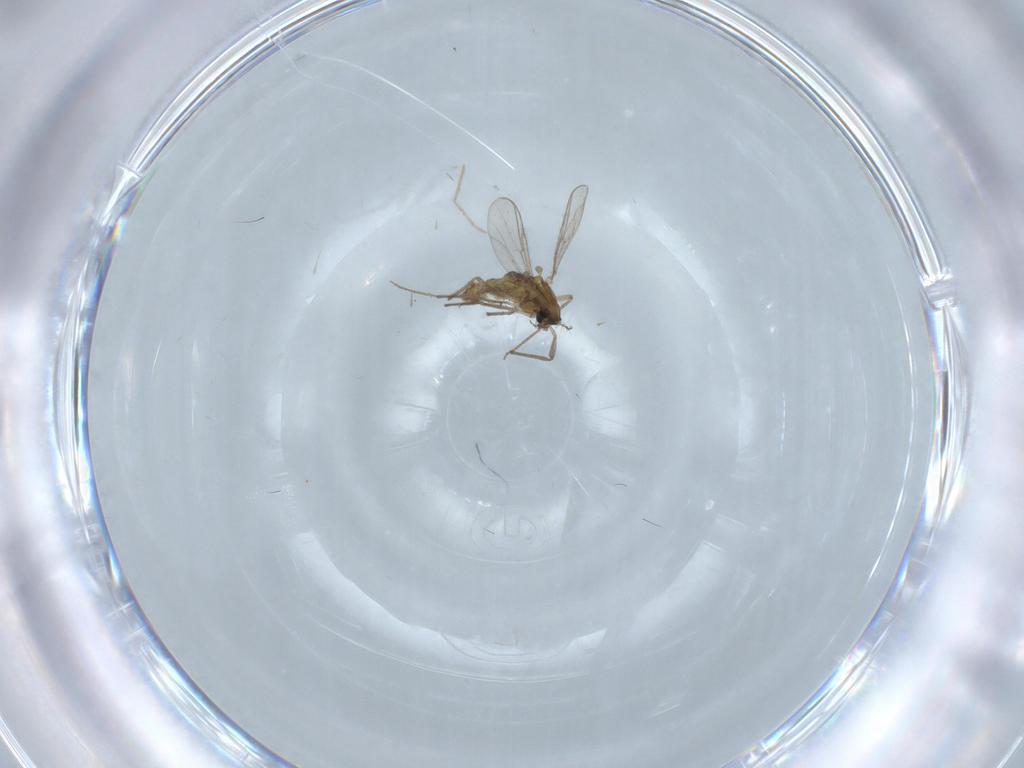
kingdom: Animalia
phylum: Arthropoda
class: Insecta
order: Diptera
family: Chironomidae
